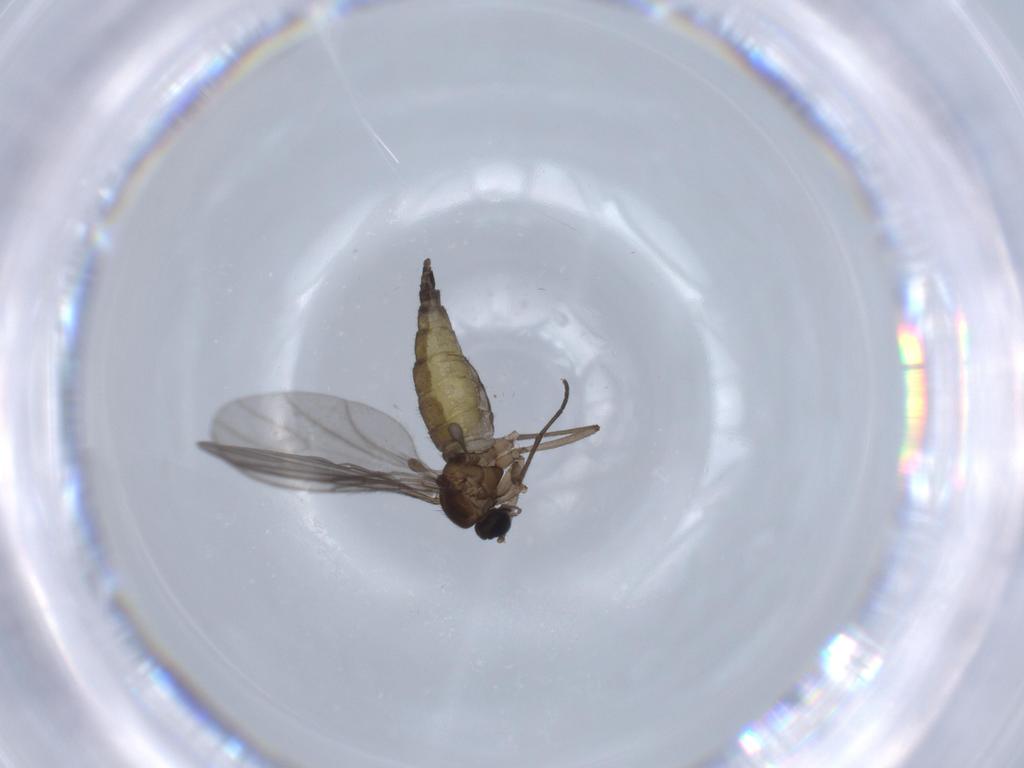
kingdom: Animalia
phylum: Arthropoda
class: Insecta
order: Diptera
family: Sciaridae
